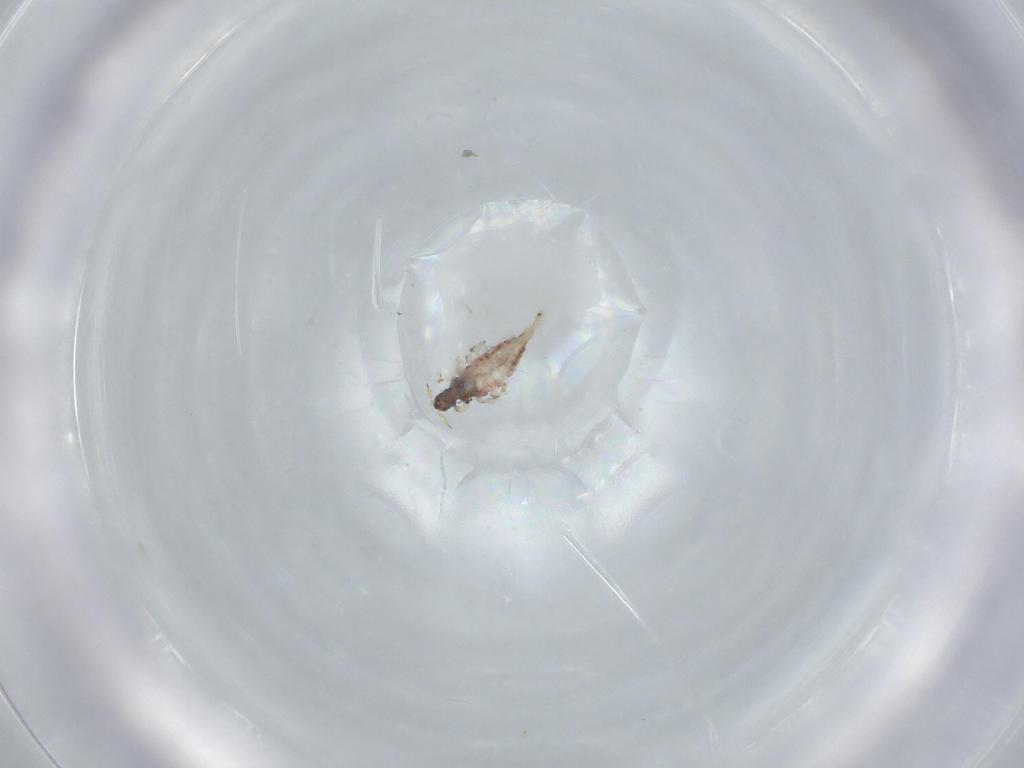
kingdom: Animalia
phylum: Arthropoda
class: Insecta
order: Thysanoptera
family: Phlaeothripidae
